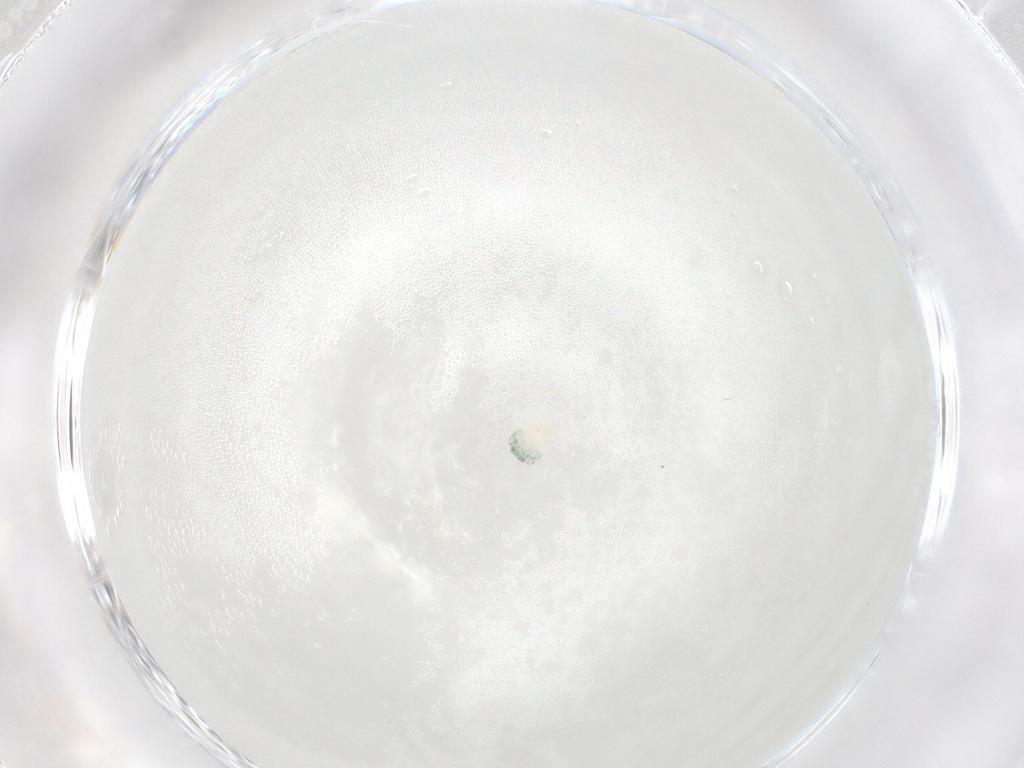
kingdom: Animalia
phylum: Arthropoda
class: Arachnida
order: Trombidiformes
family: Arrenuridae
